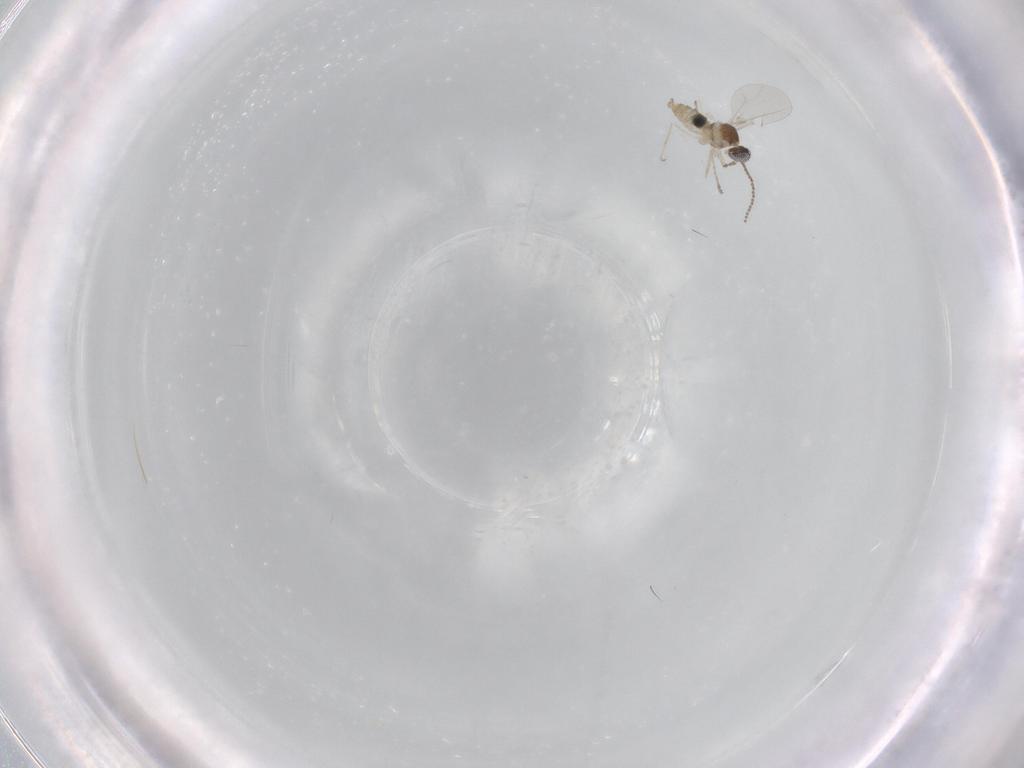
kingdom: Animalia
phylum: Arthropoda
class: Insecta
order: Diptera
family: Cecidomyiidae
